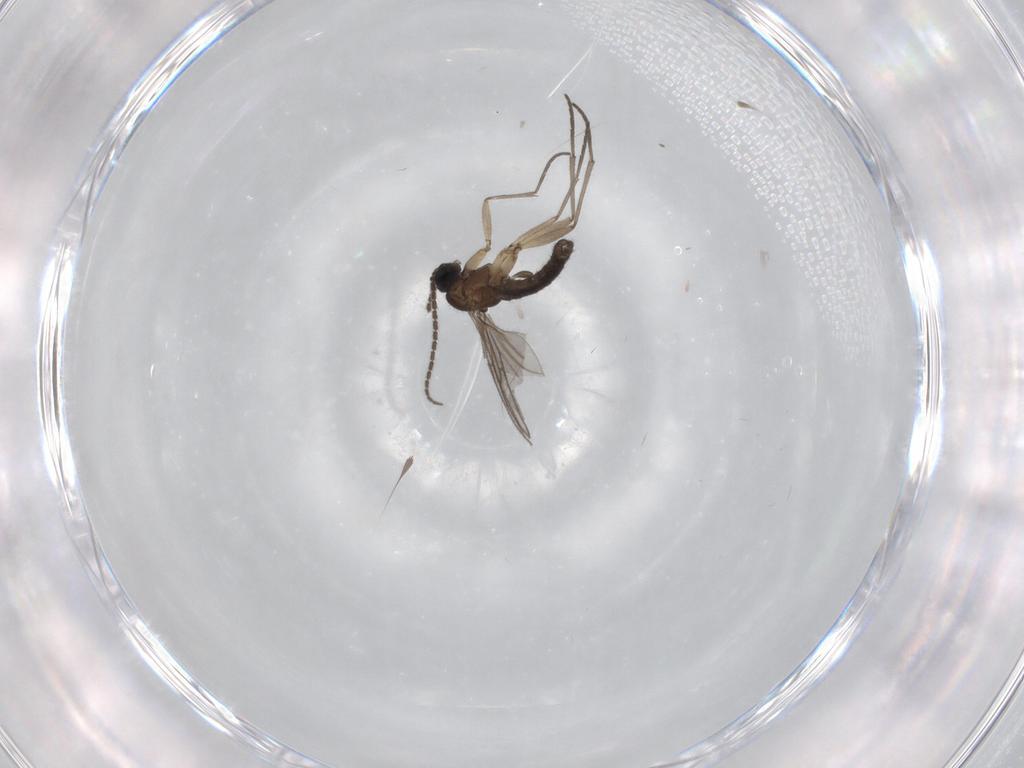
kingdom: Animalia
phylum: Arthropoda
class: Insecta
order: Diptera
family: Sciaridae
